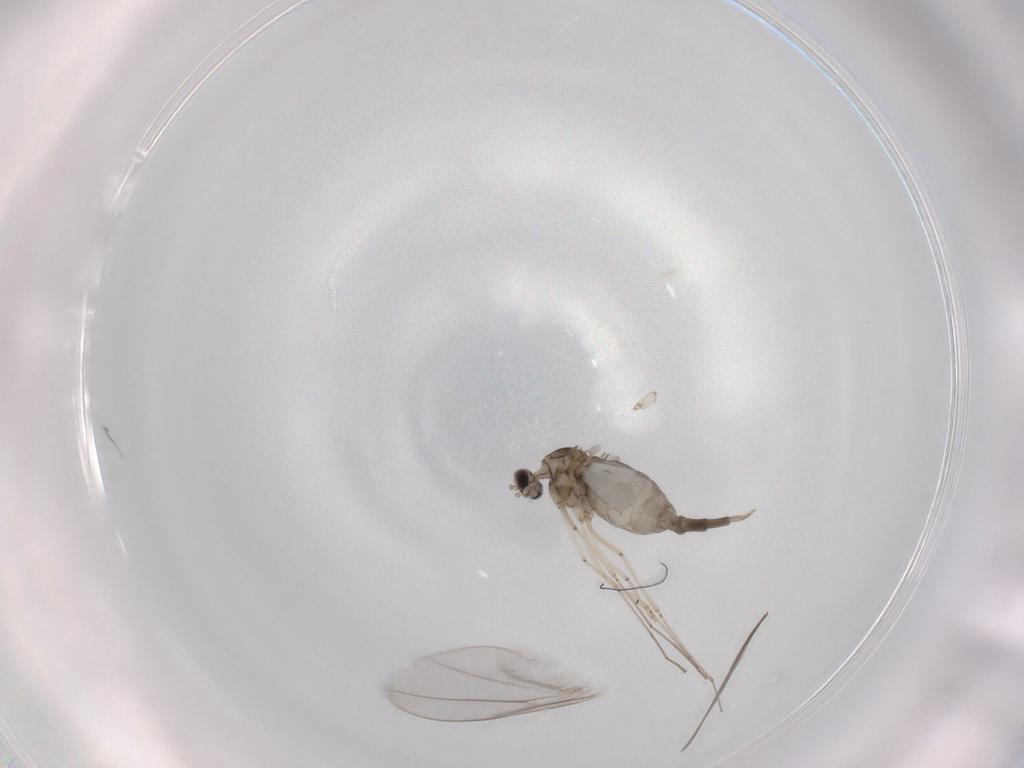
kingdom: Animalia
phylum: Arthropoda
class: Insecta
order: Diptera
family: Cecidomyiidae
